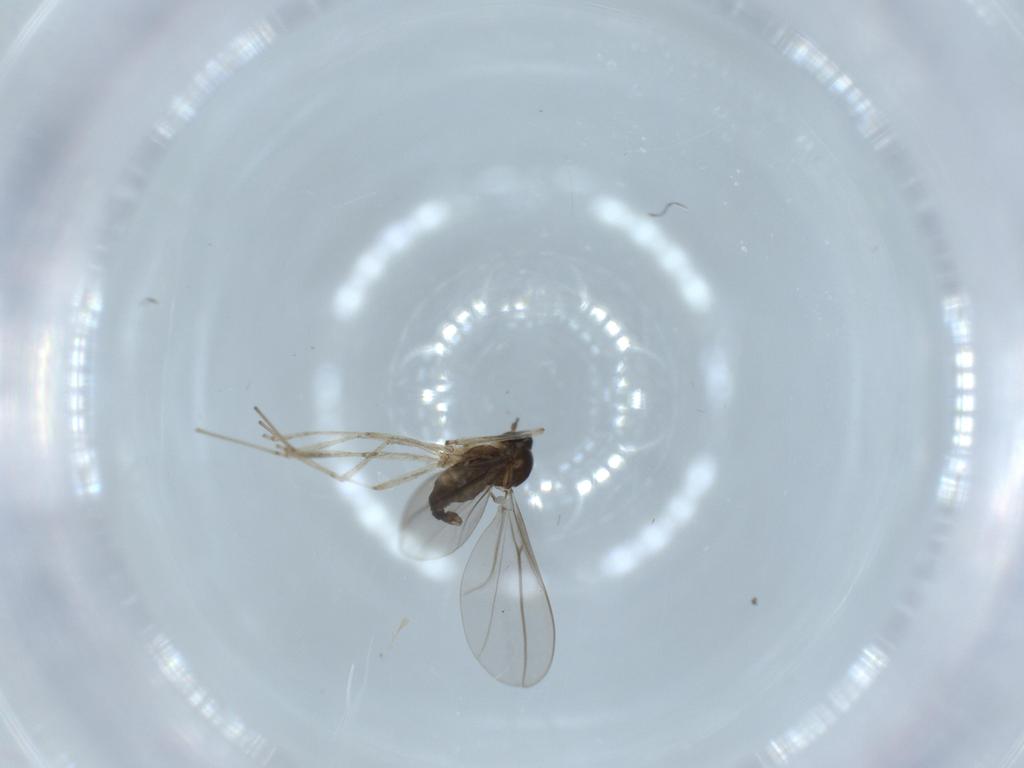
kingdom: Animalia
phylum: Arthropoda
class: Insecta
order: Diptera
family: Cecidomyiidae
